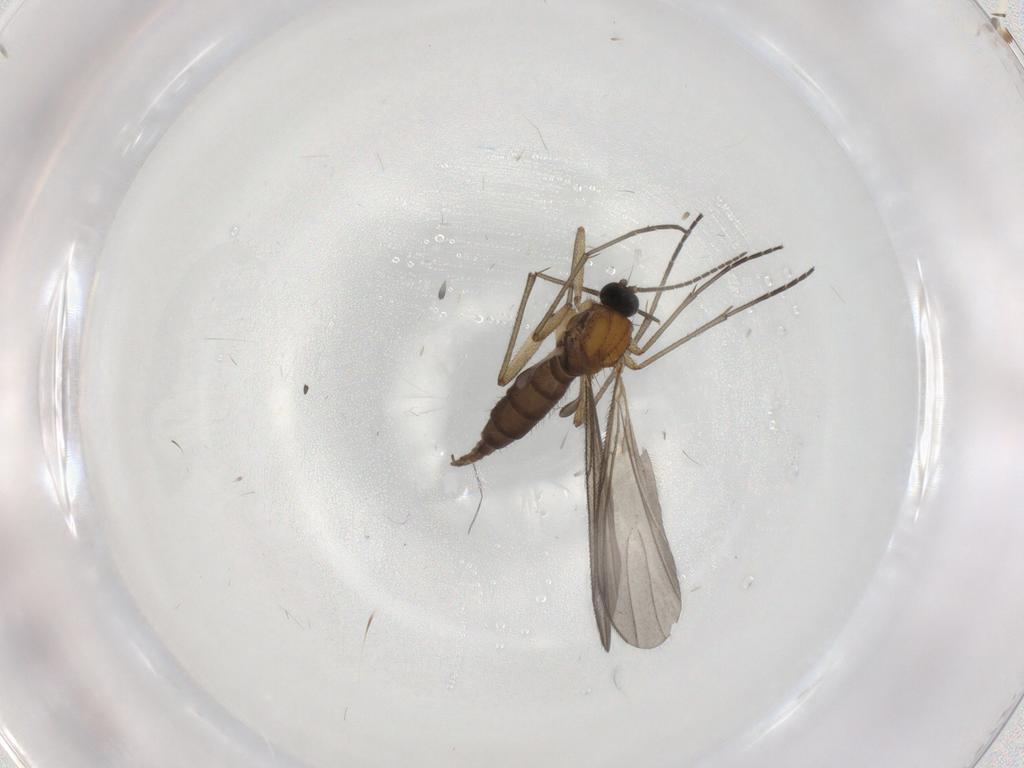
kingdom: Animalia
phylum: Arthropoda
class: Insecta
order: Diptera
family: Sciaridae
